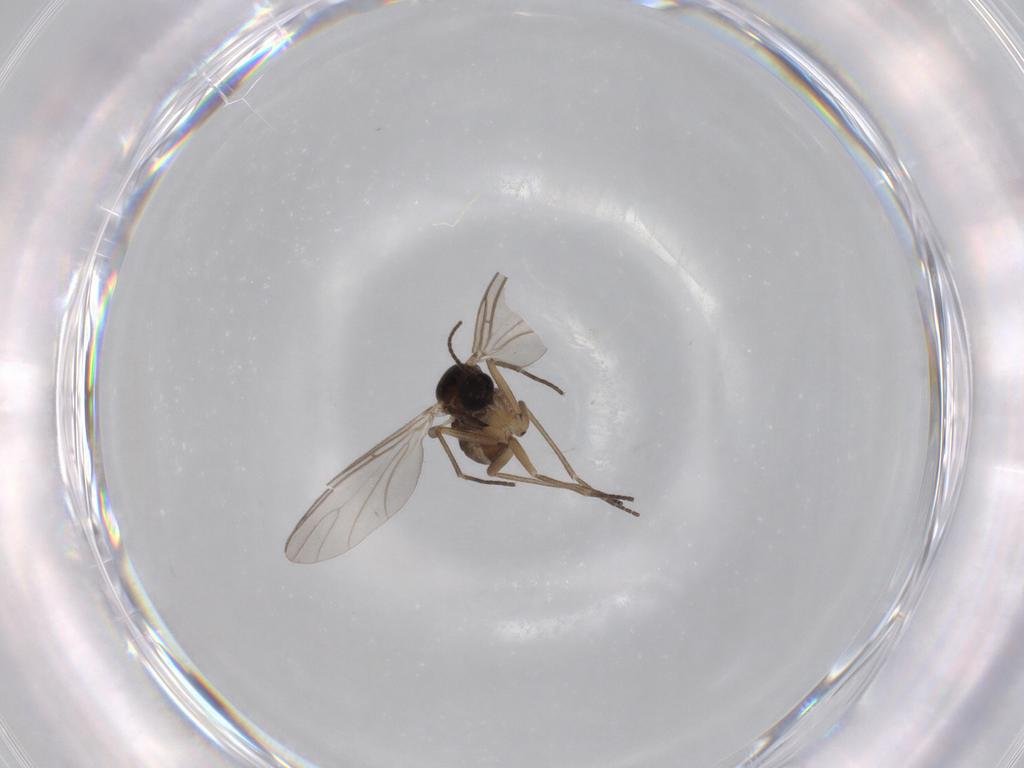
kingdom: Animalia
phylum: Arthropoda
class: Insecta
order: Diptera
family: Sciaridae
